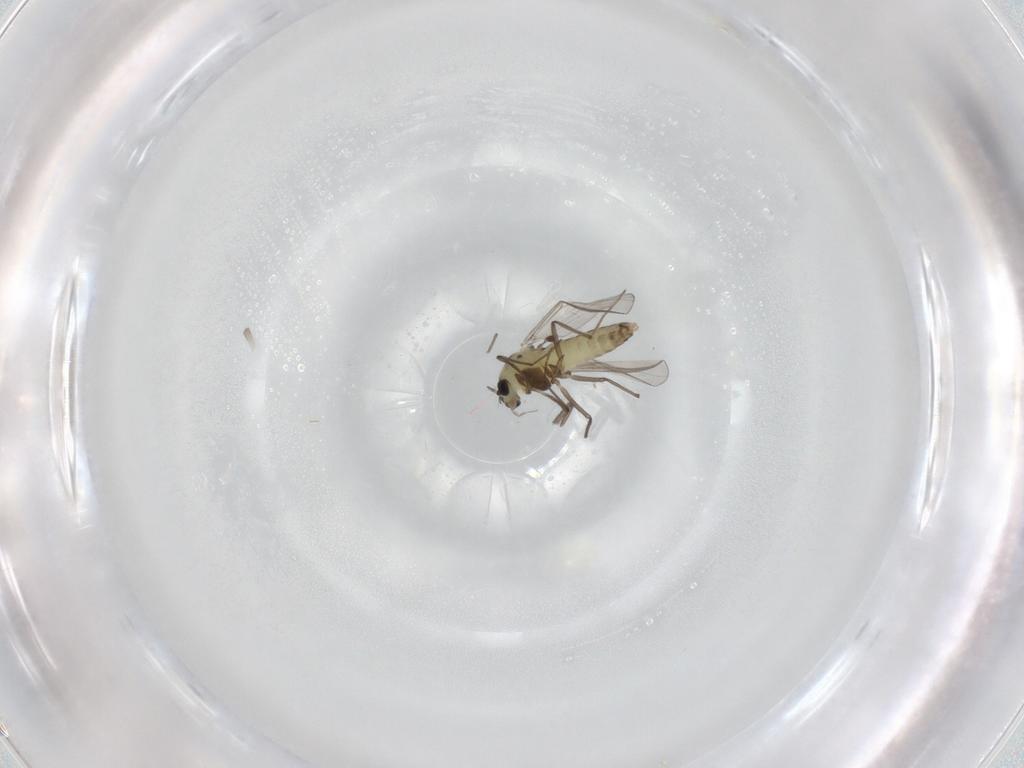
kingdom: Animalia
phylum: Arthropoda
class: Insecta
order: Diptera
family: Chironomidae
